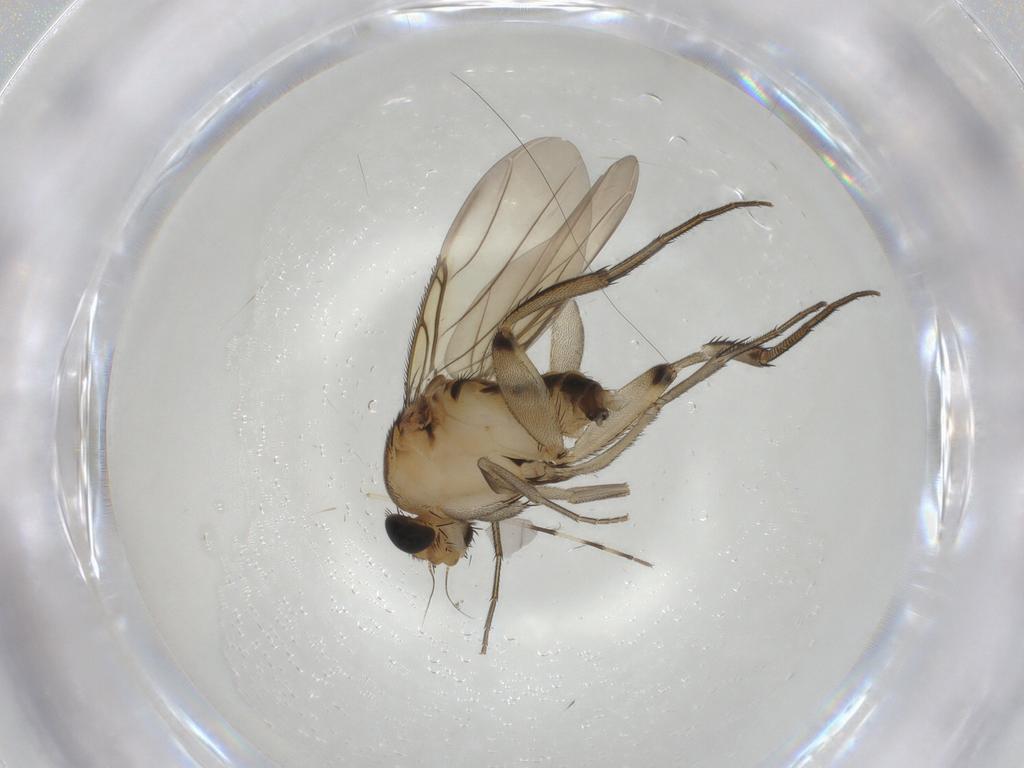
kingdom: Animalia
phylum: Arthropoda
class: Insecta
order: Diptera
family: Phoridae
